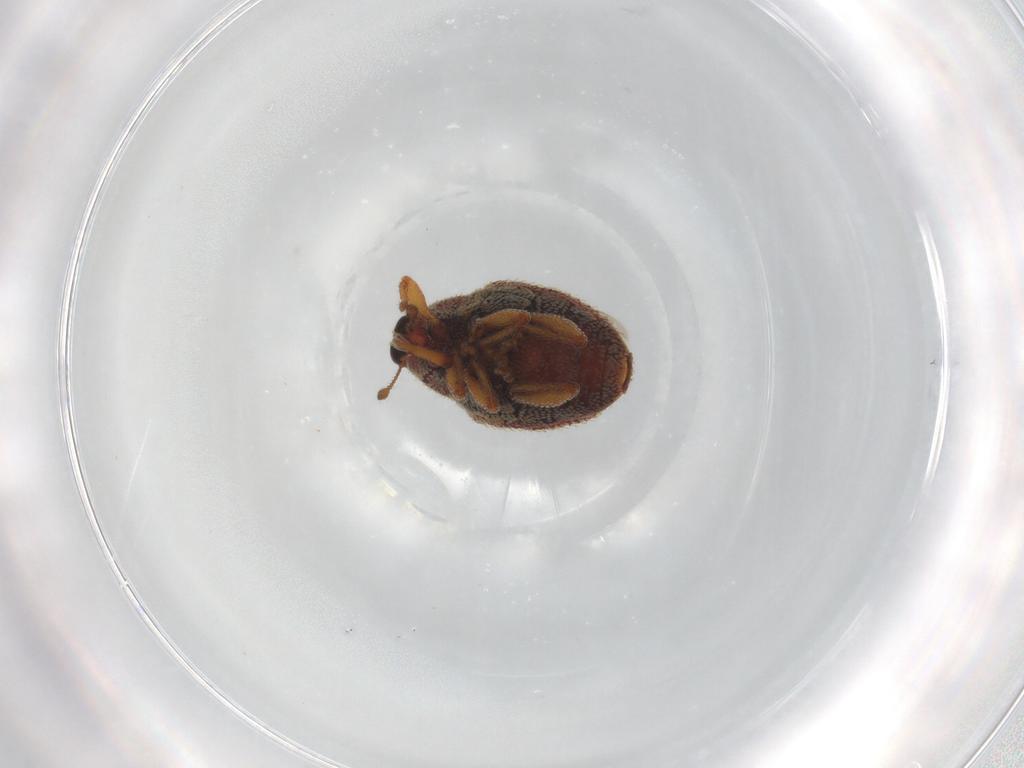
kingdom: Animalia
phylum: Arthropoda
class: Insecta
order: Coleoptera
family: Curculionidae
